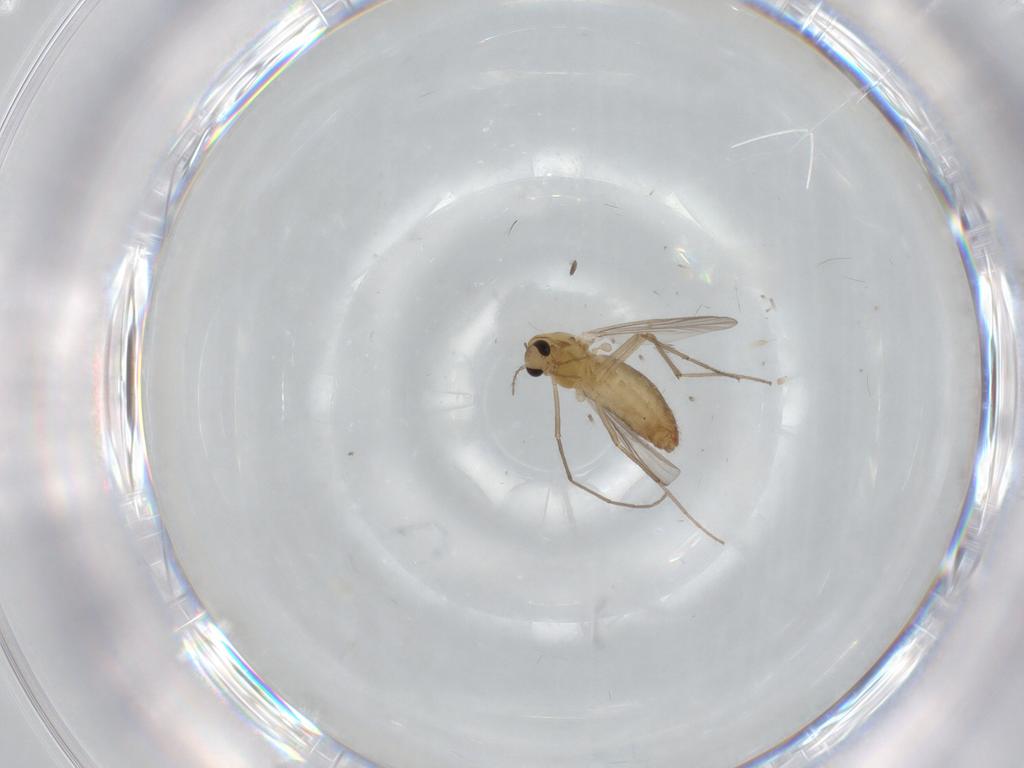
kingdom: Animalia
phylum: Arthropoda
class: Insecta
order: Diptera
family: Chironomidae
